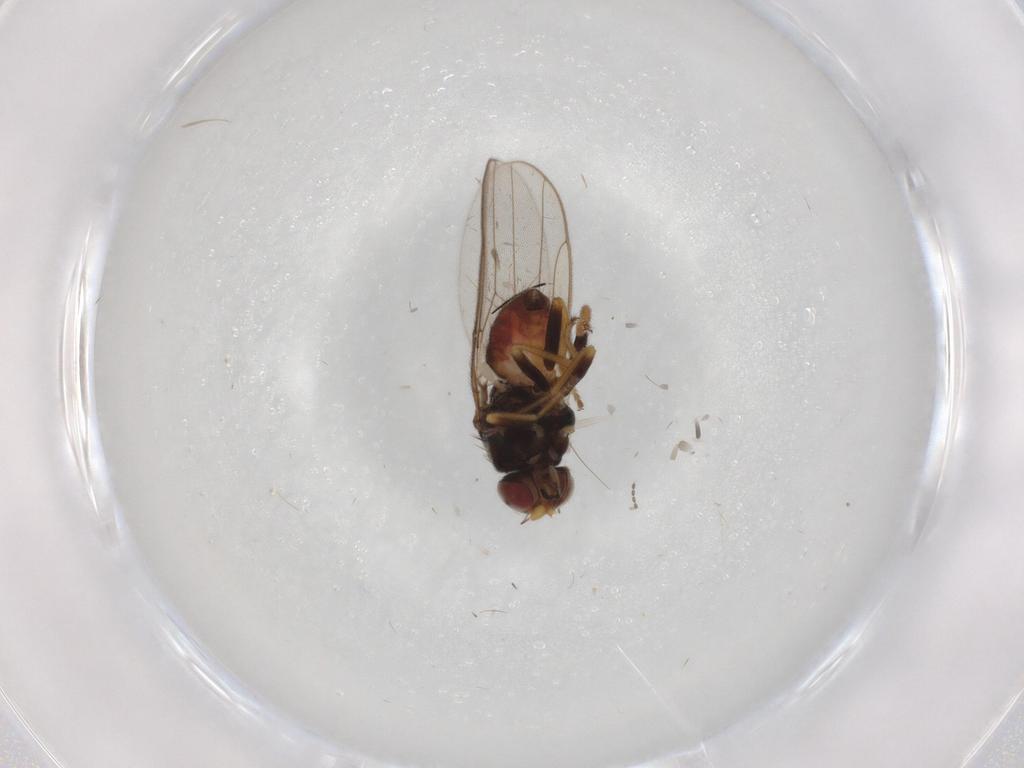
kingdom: Animalia
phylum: Arthropoda
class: Insecta
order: Diptera
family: Chloropidae
